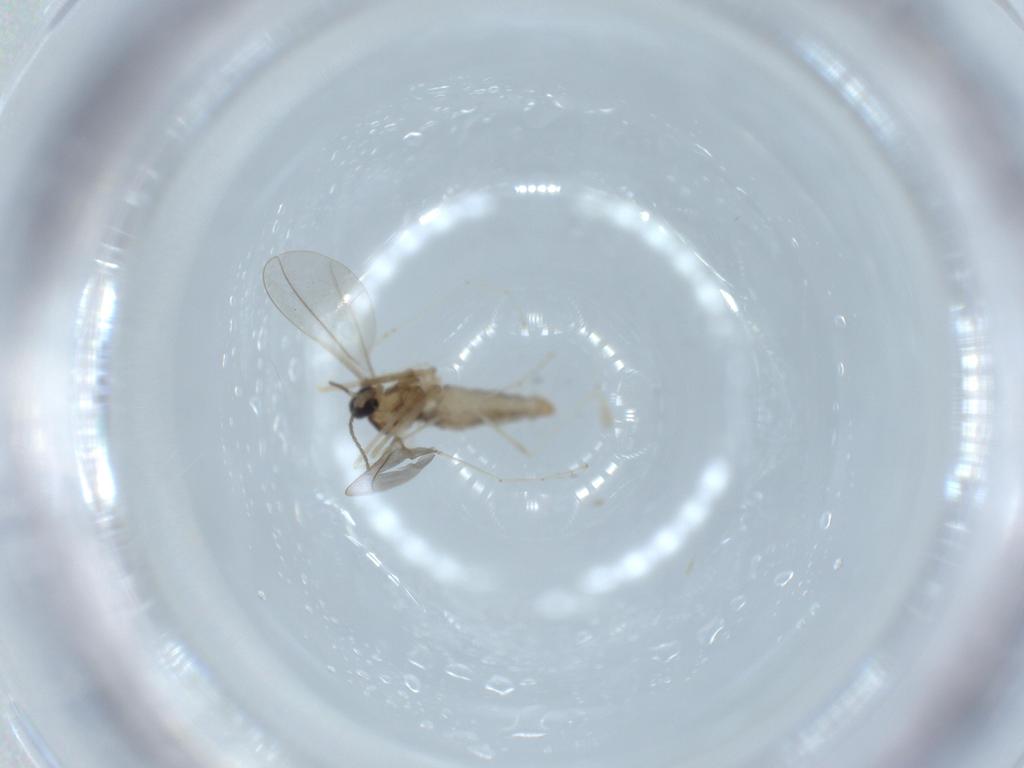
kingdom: Animalia
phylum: Arthropoda
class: Insecta
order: Diptera
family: Cecidomyiidae
